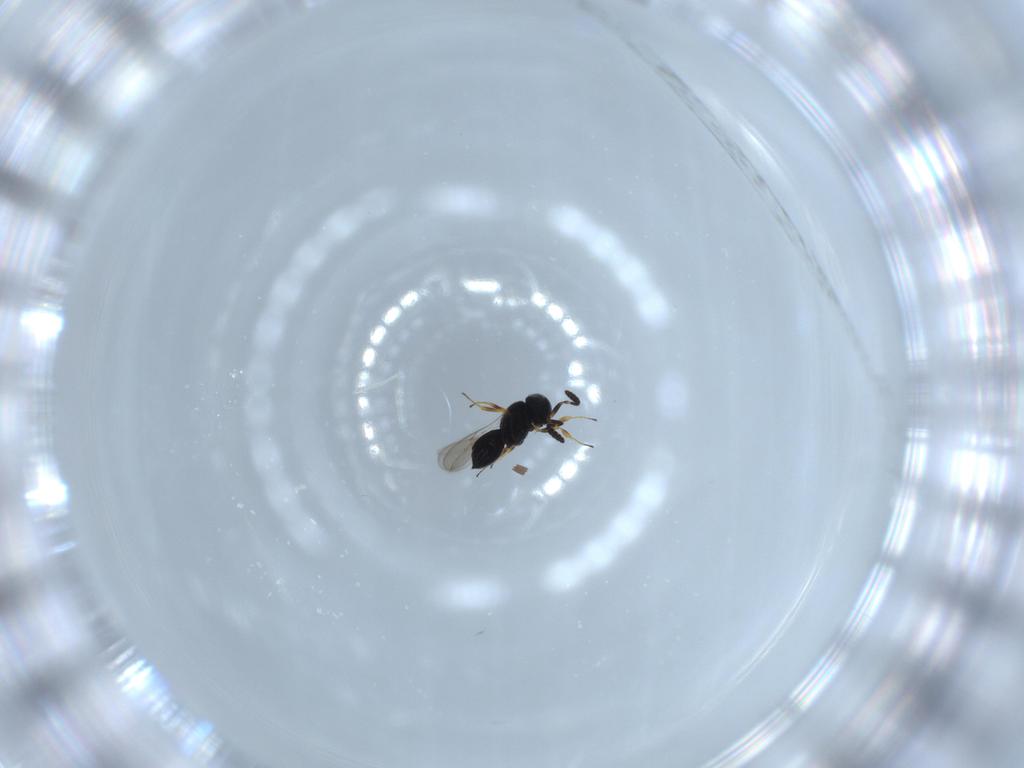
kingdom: Animalia
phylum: Arthropoda
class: Insecta
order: Hymenoptera
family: Scelionidae
